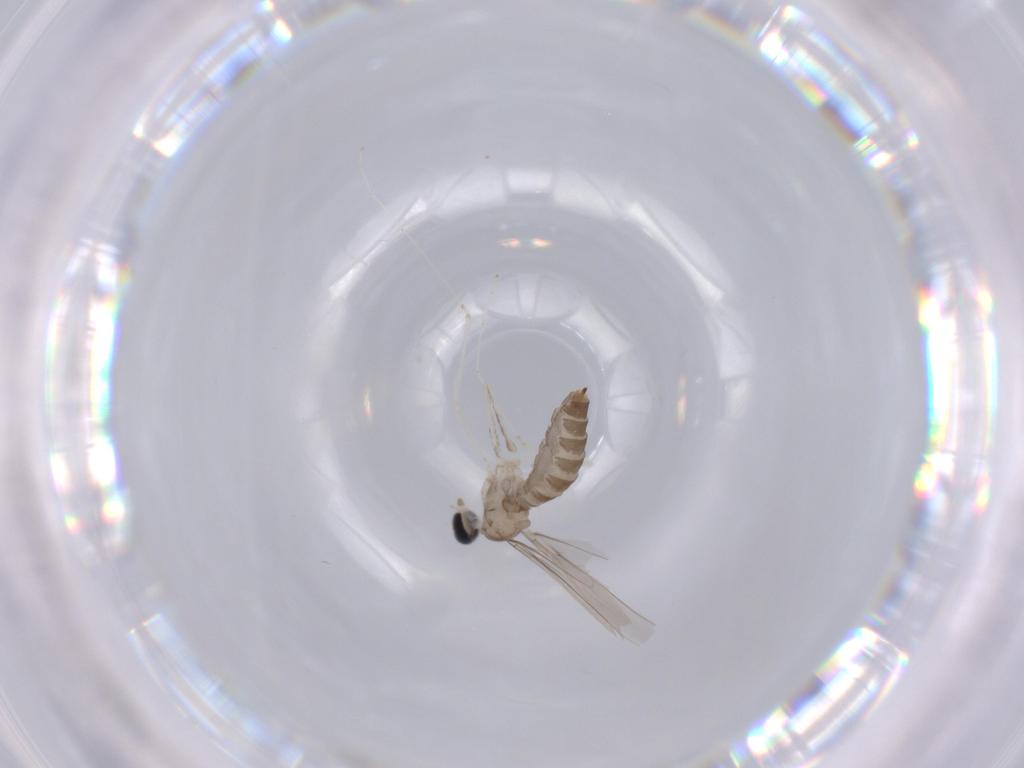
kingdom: Animalia
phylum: Arthropoda
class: Insecta
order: Diptera
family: Cecidomyiidae
